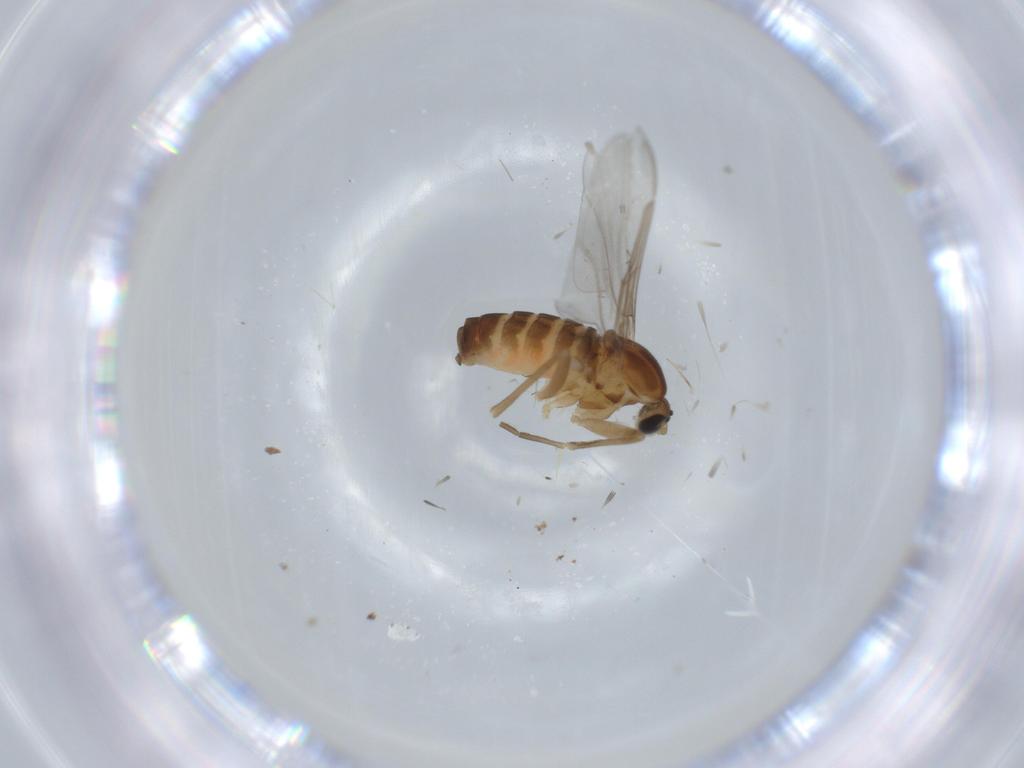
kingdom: Animalia
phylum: Arthropoda
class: Insecta
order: Diptera
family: Cecidomyiidae
